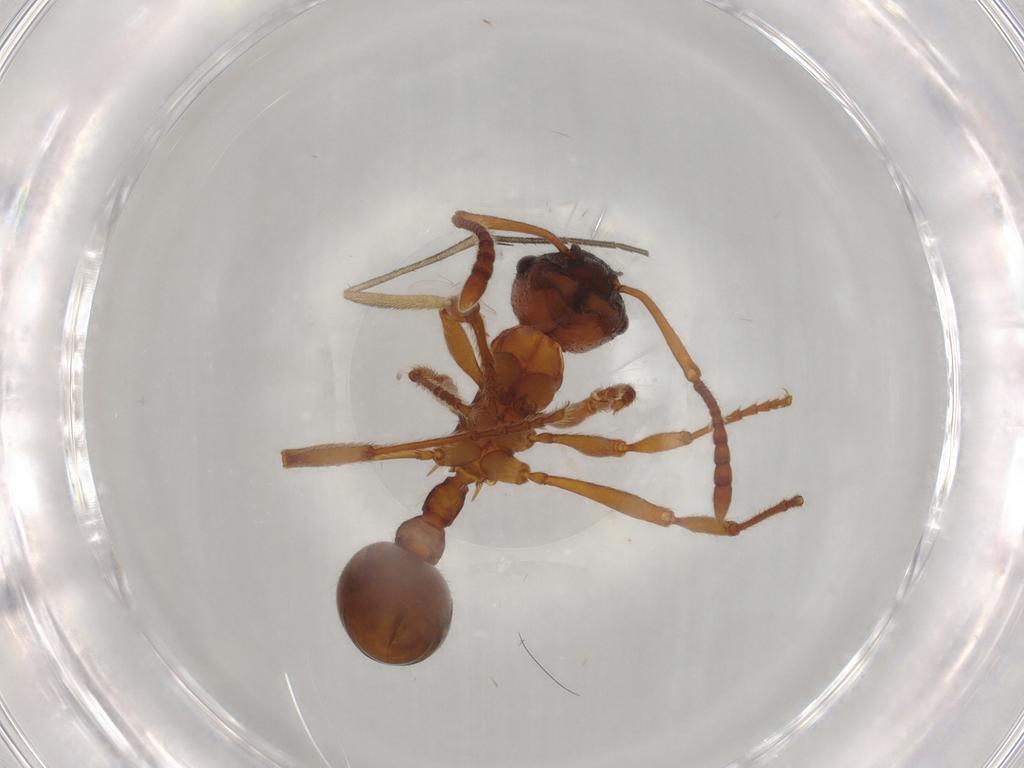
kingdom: Animalia
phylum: Arthropoda
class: Insecta
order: Hymenoptera
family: Formicidae
